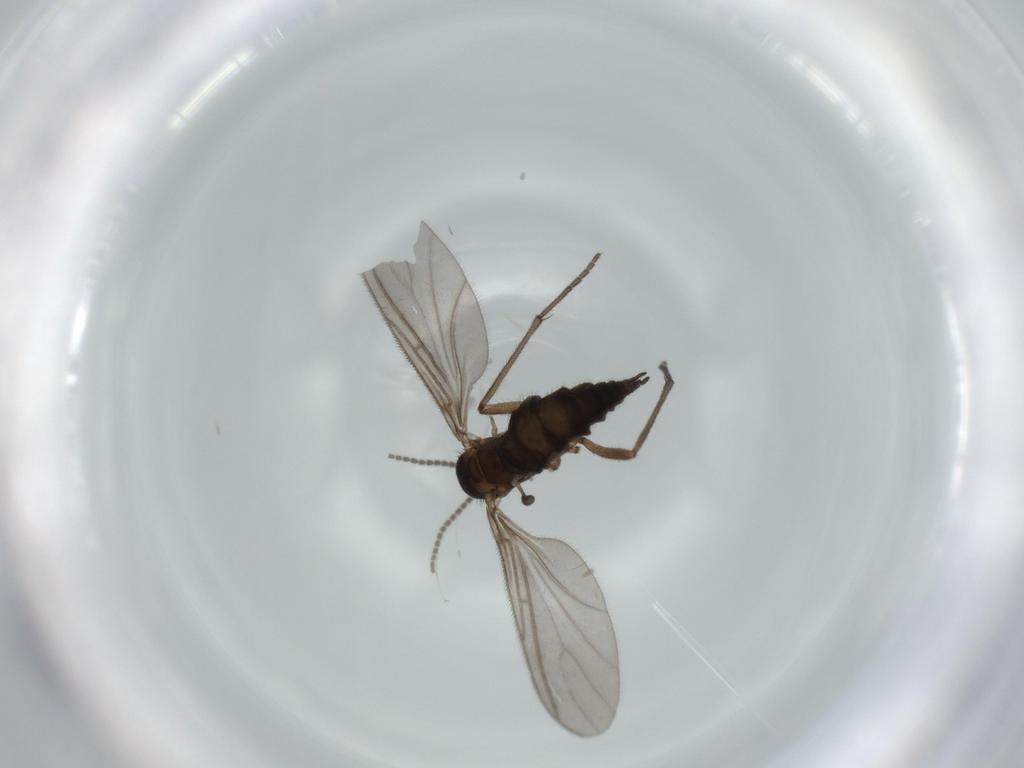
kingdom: Animalia
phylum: Arthropoda
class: Insecta
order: Diptera
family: Sciaridae
